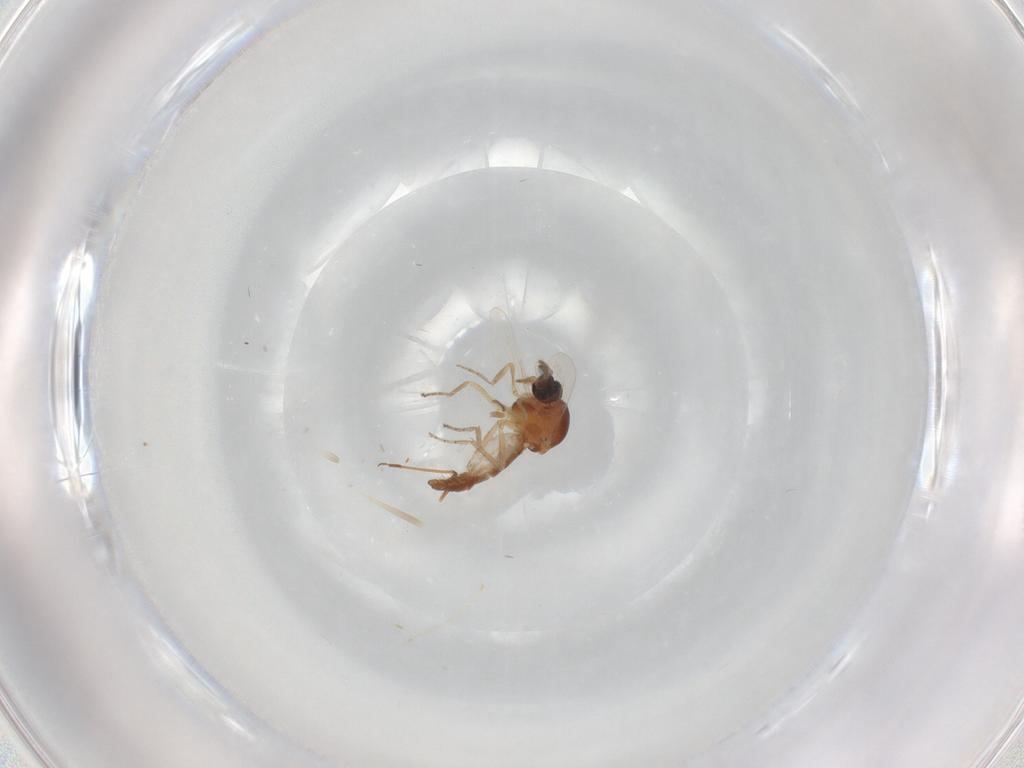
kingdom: Animalia
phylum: Arthropoda
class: Insecta
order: Diptera
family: Ceratopogonidae
